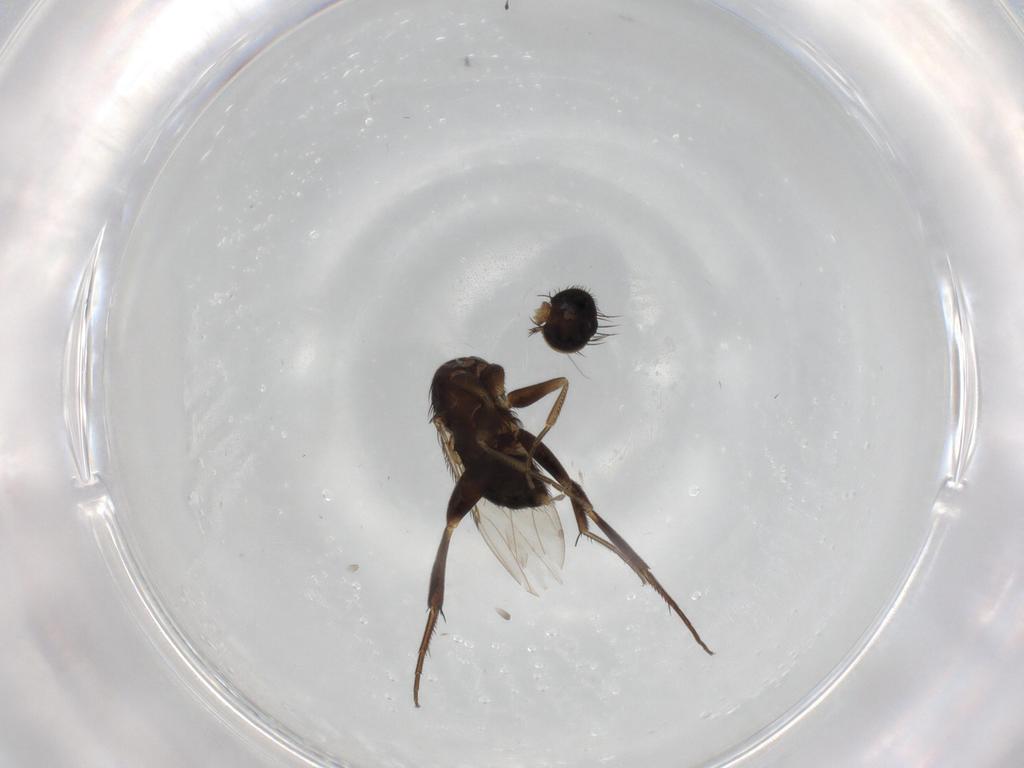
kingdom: Animalia
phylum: Arthropoda
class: Insecta
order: Diptera
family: Phoridae
